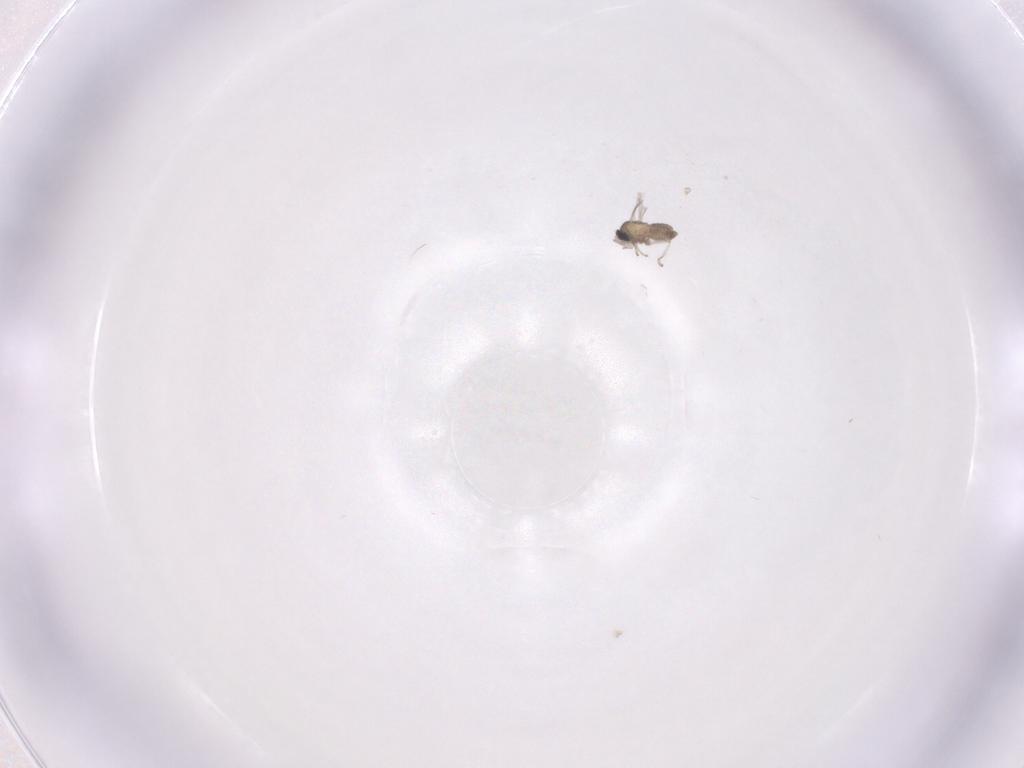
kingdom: Animalia
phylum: Arthropoda
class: Insecta
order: Diptera
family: Cecidomyiidae
